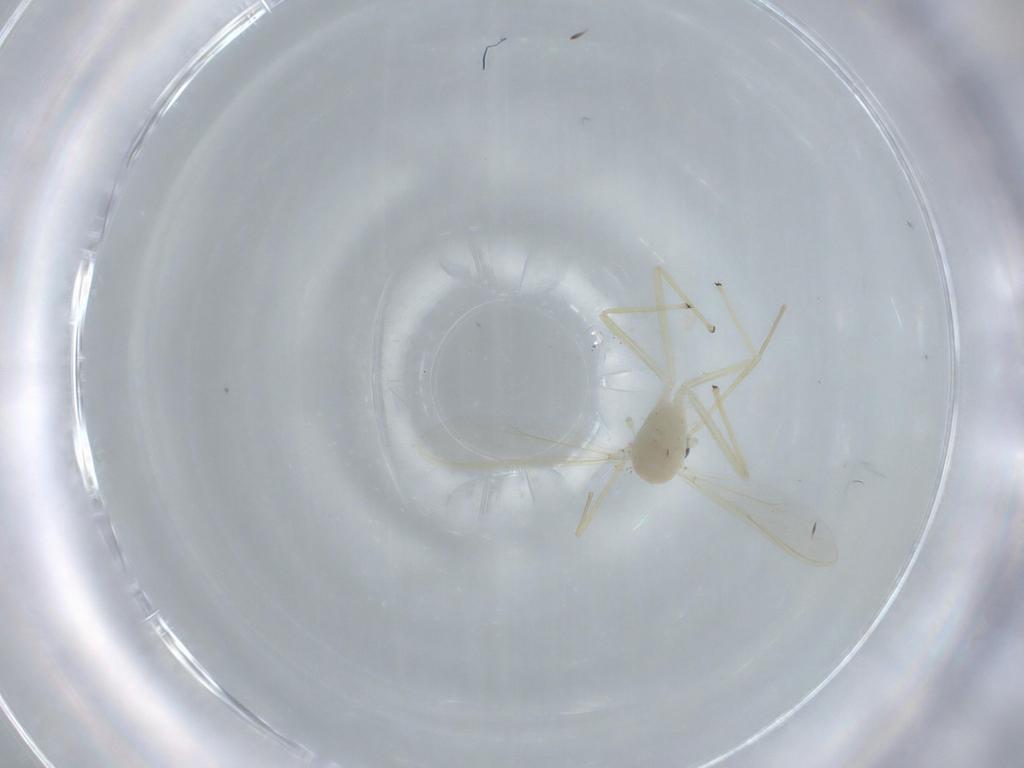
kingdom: Animalia
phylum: Arthropoda
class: Insecta
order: Diptera
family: Chironomidae
